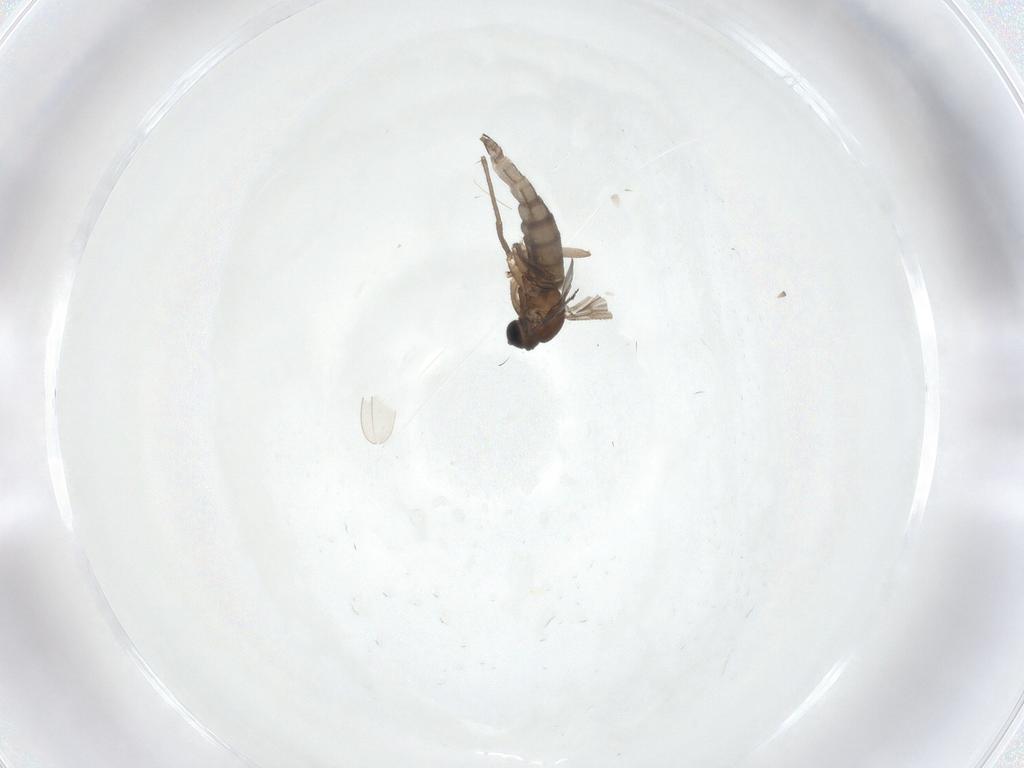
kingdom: Animalia
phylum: Arthropoda
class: Insecta
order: Diptera
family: Sciaridae
